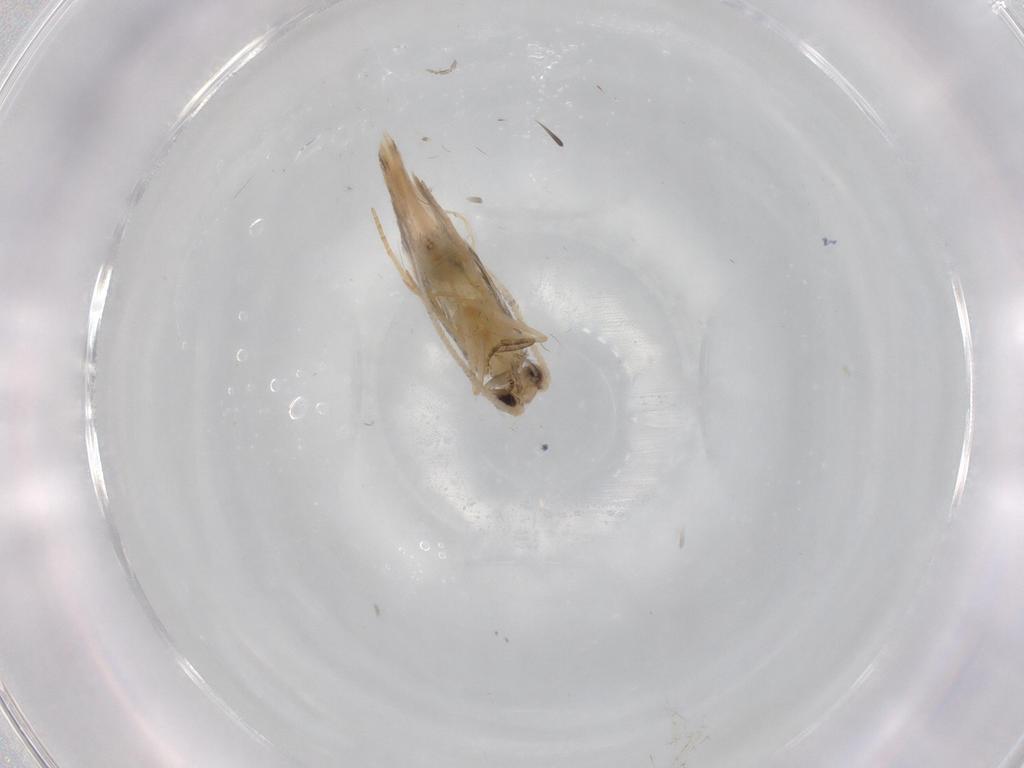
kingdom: Animalia
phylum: Arthropoda
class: Insecta
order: Trichoptera
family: Hydroptilidae
